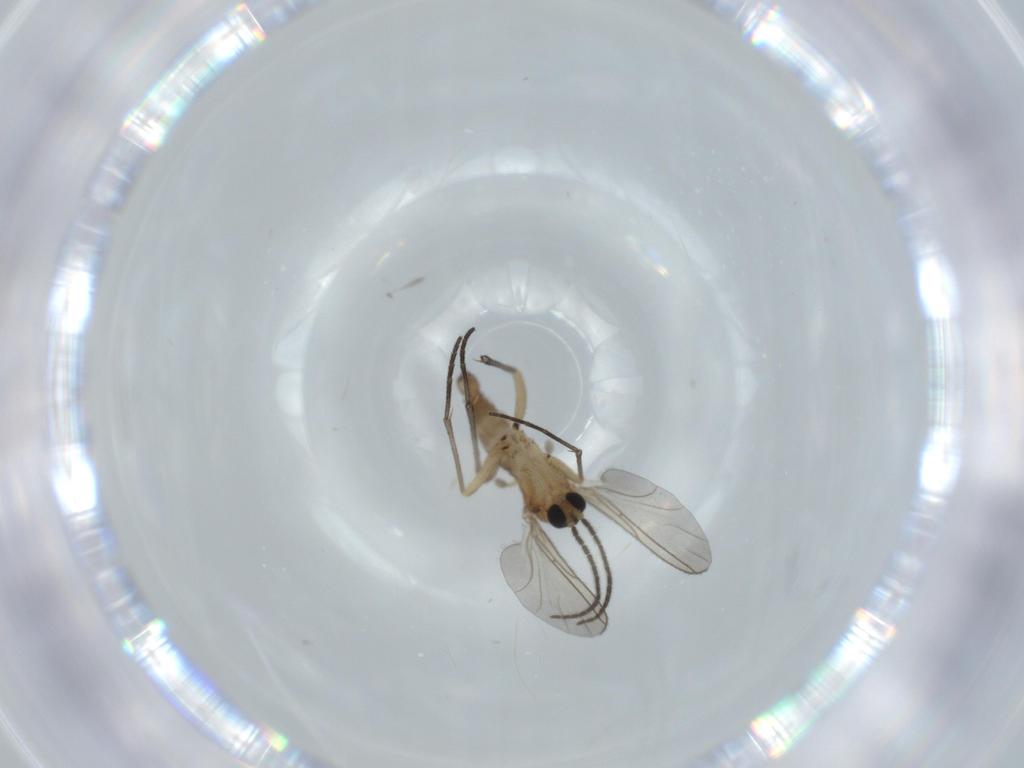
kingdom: Animalia
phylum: Arthropoda
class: Insecta
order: Diptera
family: Sciaridae
